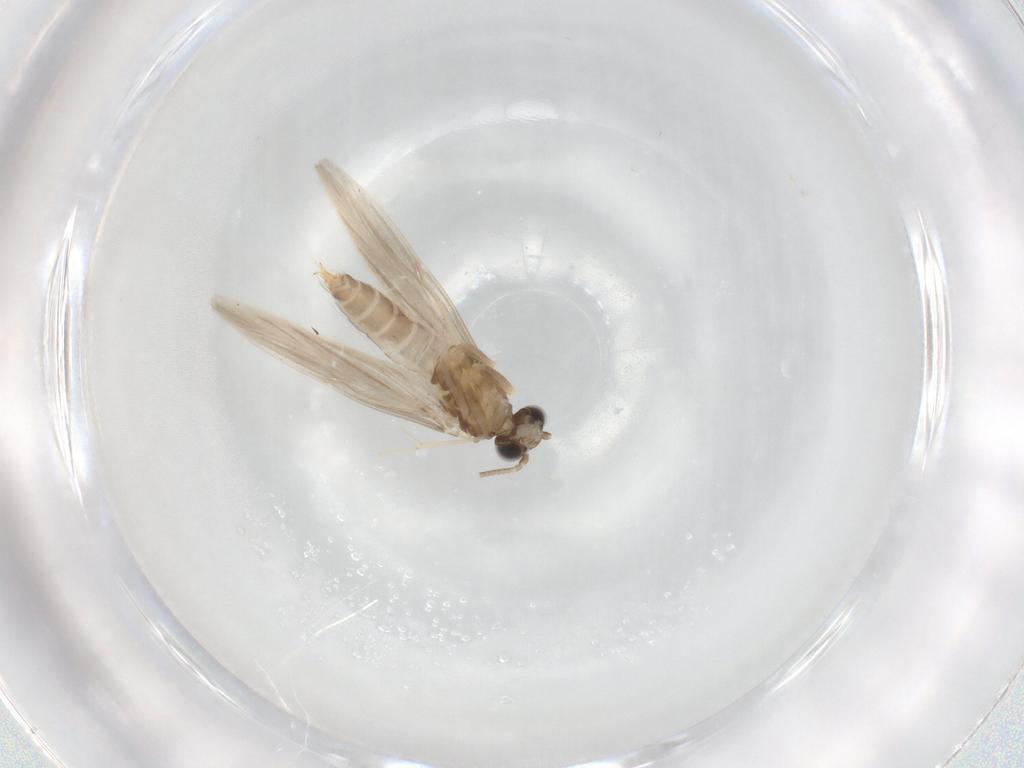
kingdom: Animalia
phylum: Arthropoda
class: Insecta
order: Trichoptera
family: Hydroptilidae
